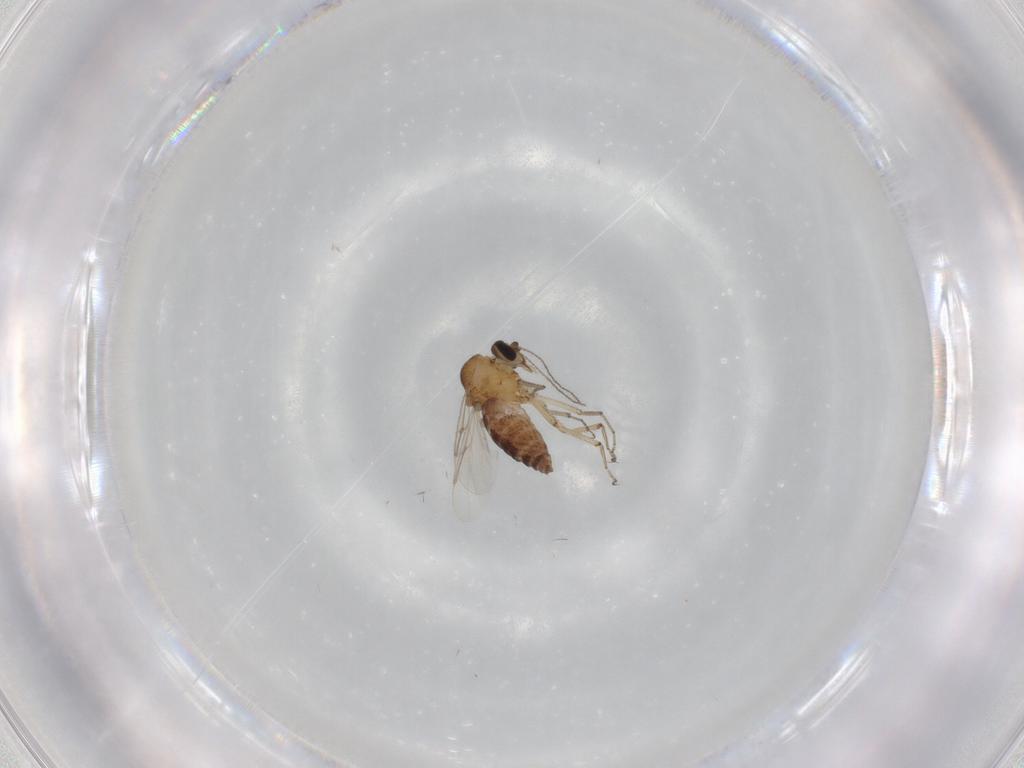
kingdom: Animalia
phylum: Arthropoda
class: Insecta
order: Diptera
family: Ceratopogonidae
